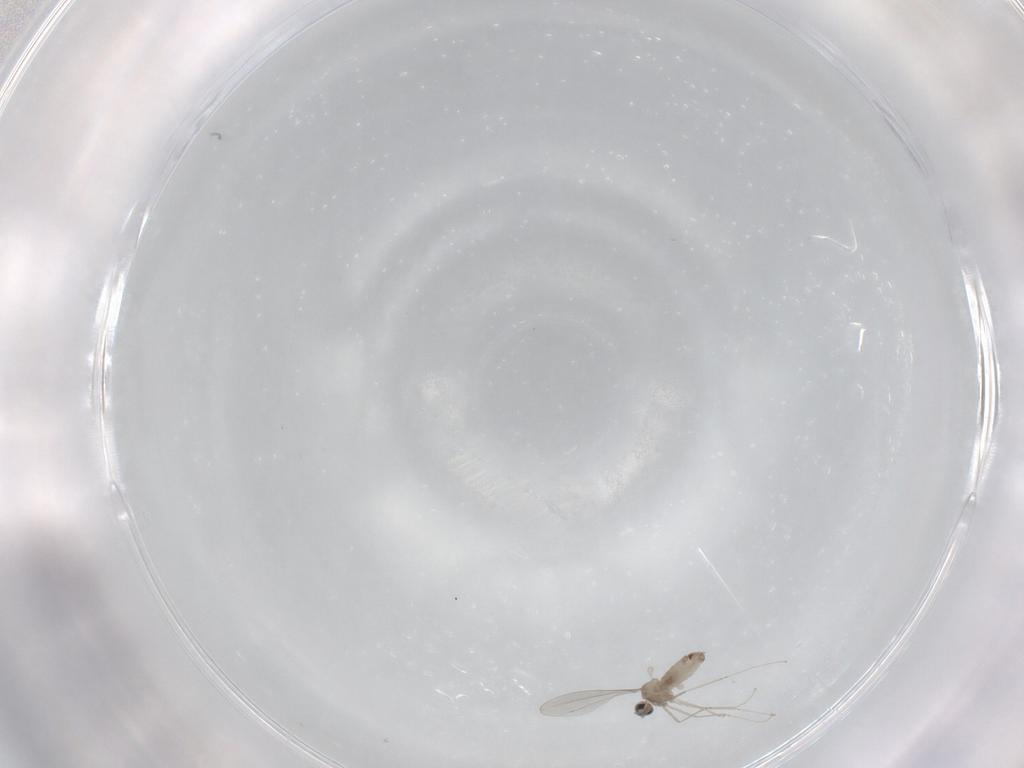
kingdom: Animalia
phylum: Arthropoda
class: Insecta
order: Diptera
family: Cecidomyiidae
